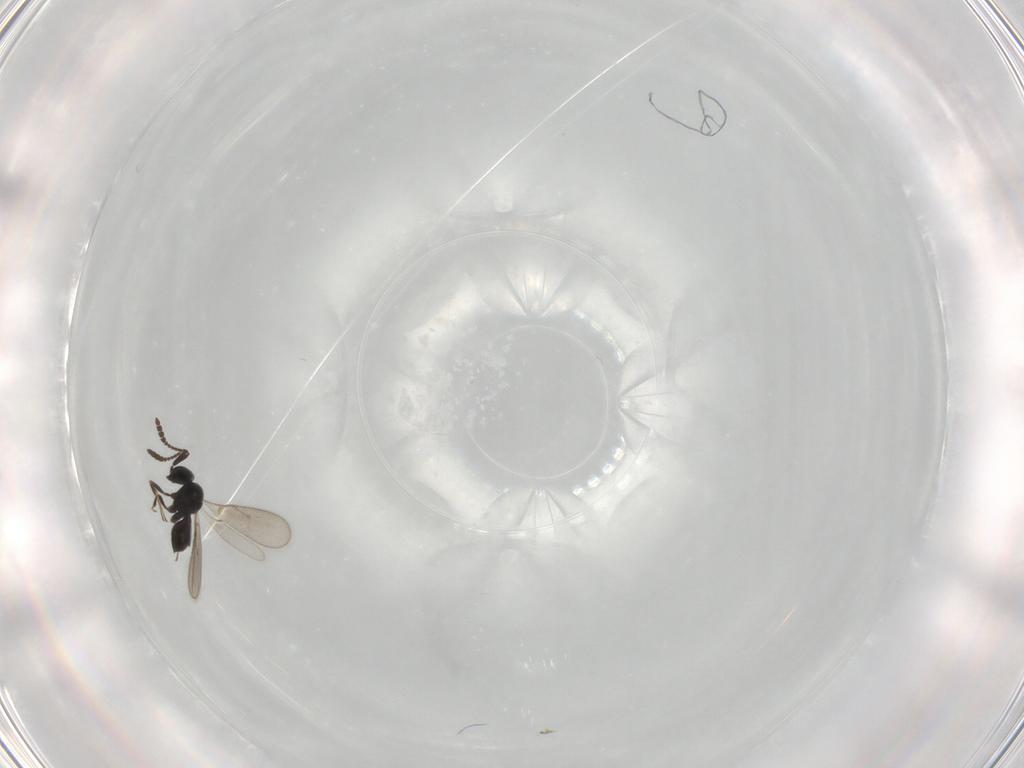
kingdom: Animalia
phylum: Arthropoda
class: Insecta
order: Hymenoptera
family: Scelionidae
